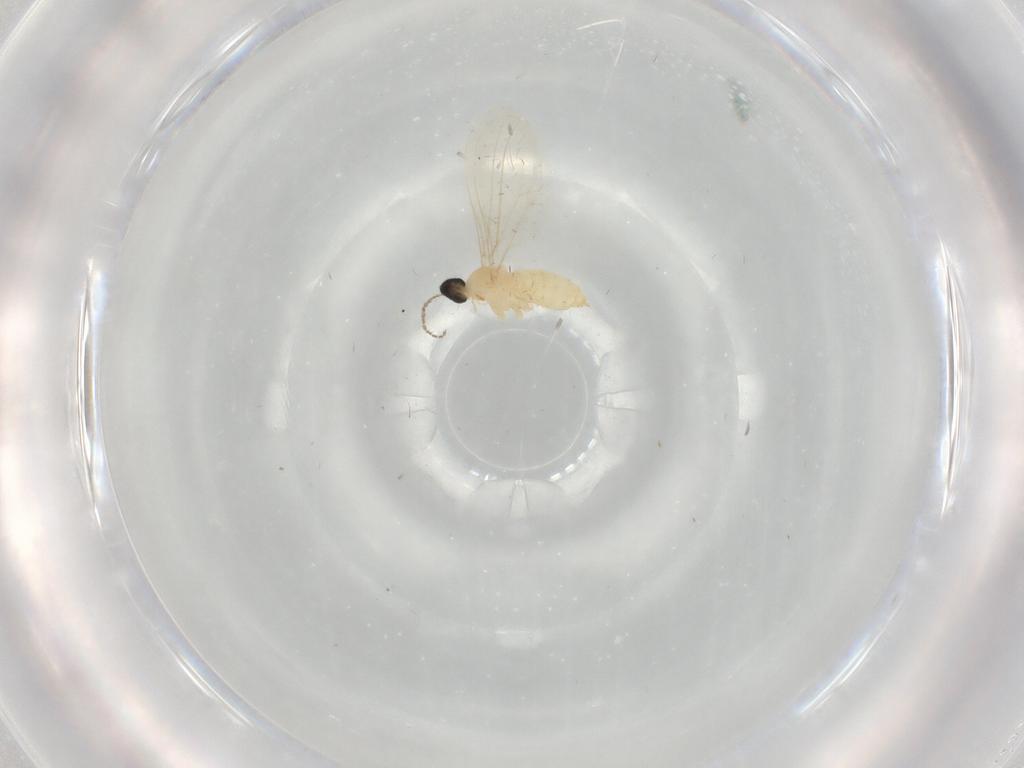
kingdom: Animalia
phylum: Arthropoda
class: Insecta
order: Diptera
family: Cecidomyiidae
